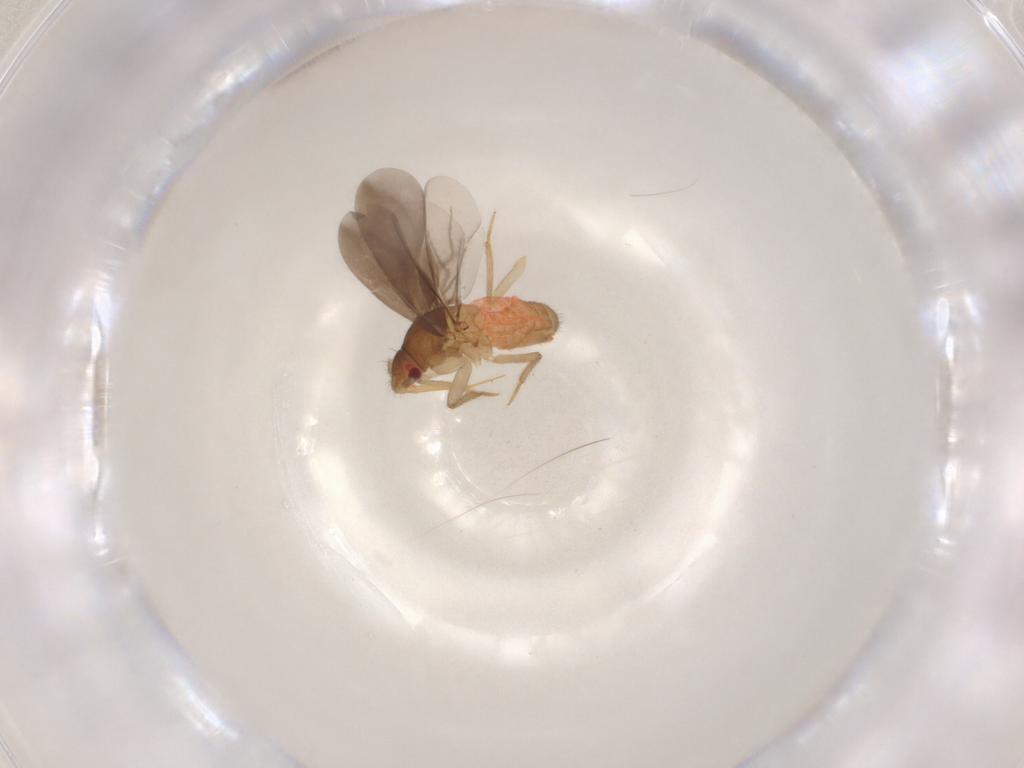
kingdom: Animalia
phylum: Arthropoda
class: Insecta
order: Hemiptera
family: Ceratocombidae
